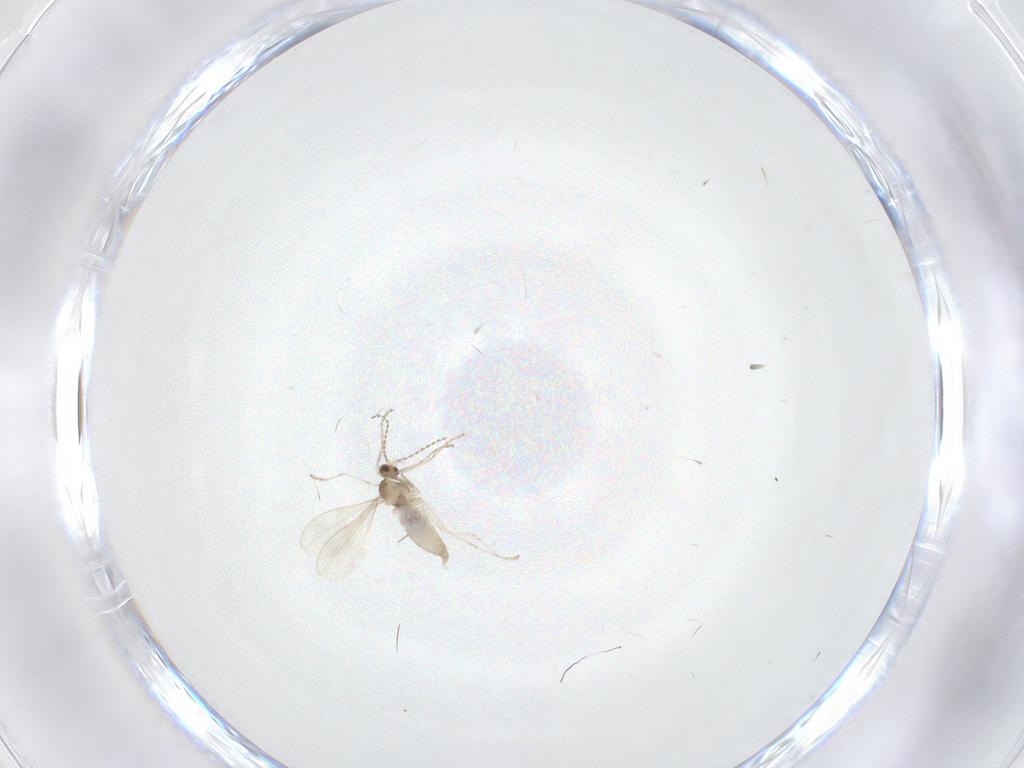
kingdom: Animalia
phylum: Arthropoda
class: Insecta
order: Diptera
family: Cecidomyiidae
